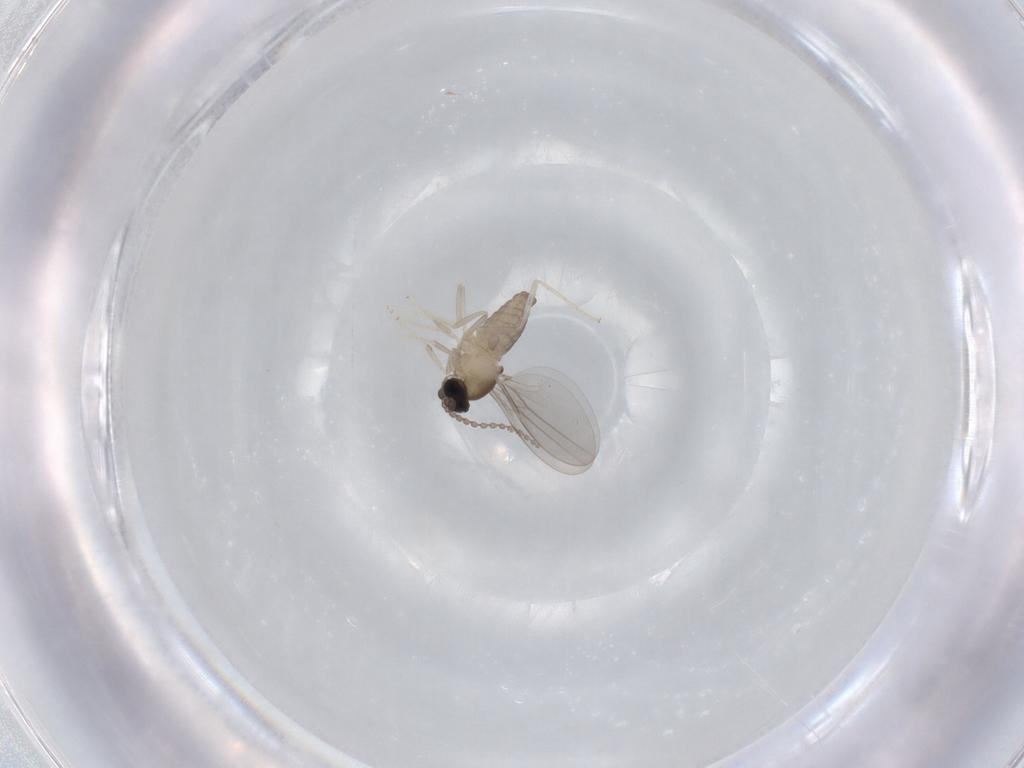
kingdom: Animalia
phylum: Arthropoda
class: Insecta
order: Diptera
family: Cecidomyiidae
